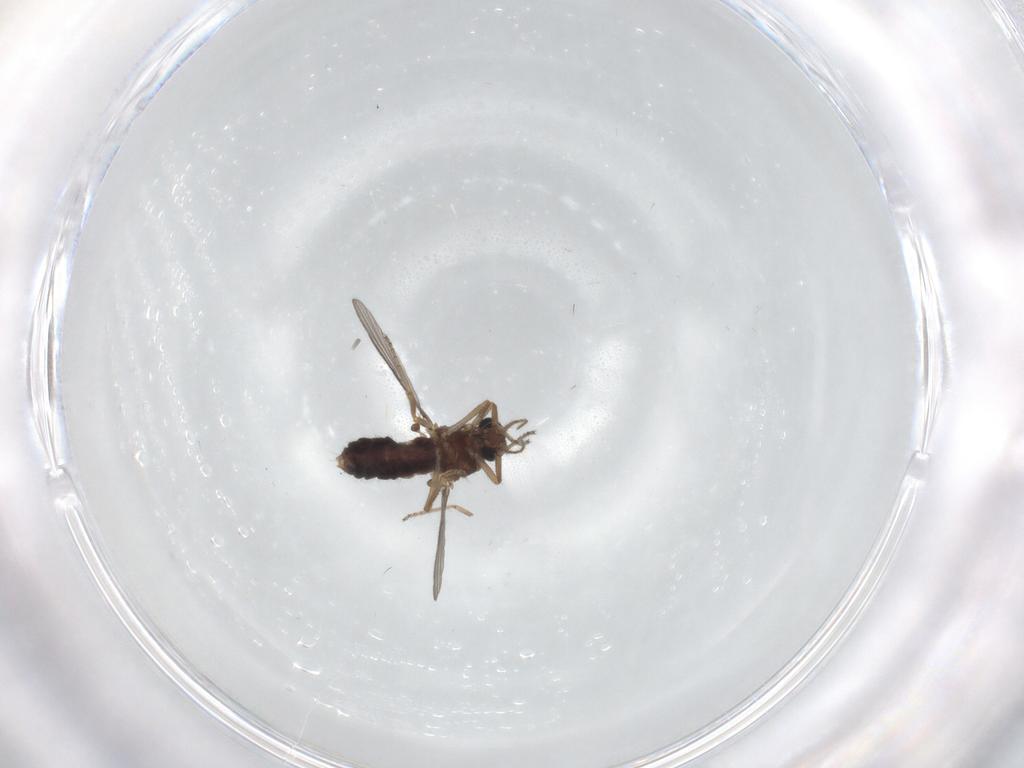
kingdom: Animalia
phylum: Arthropoda
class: Insecta
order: Diptera
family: Ceratopogonidae
